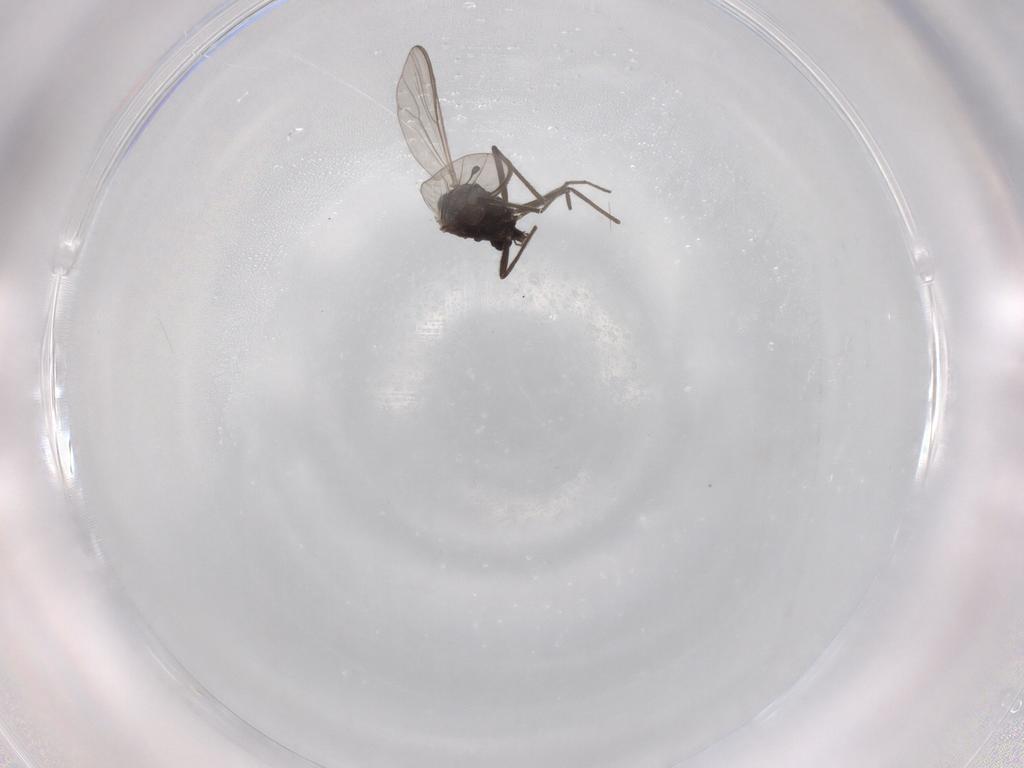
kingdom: Animalia
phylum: Arthropoda
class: Insecta
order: Diptera
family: Chironomidae
